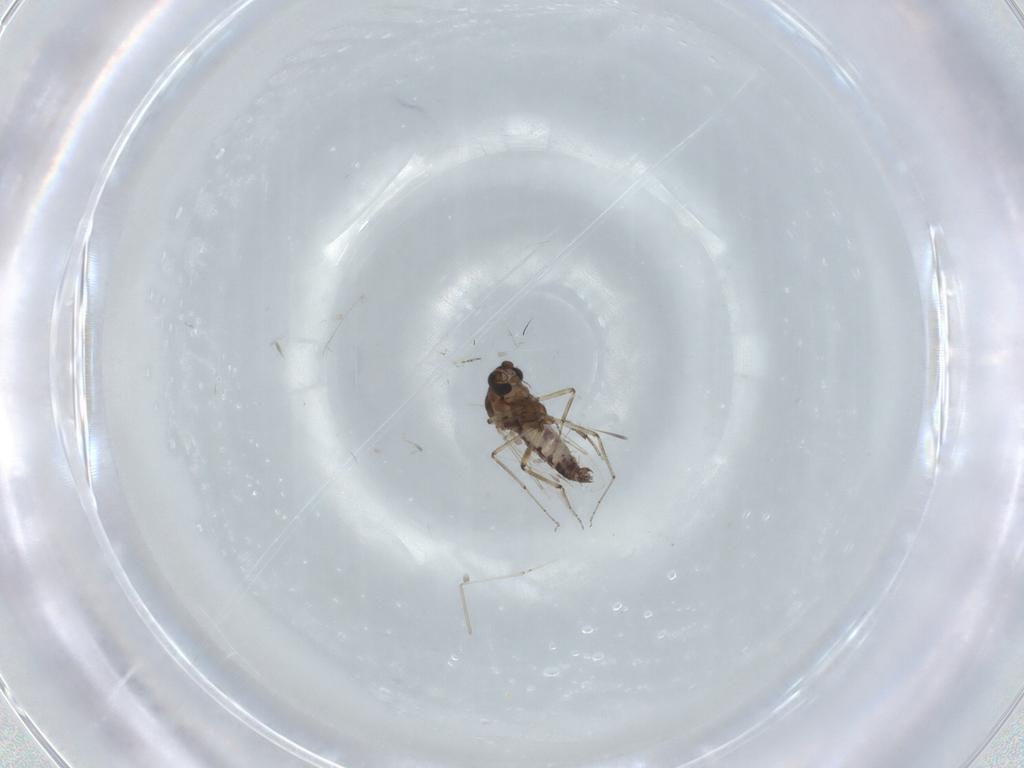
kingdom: Animalia
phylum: Arthropoda
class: Insecta
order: Diptera
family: Ceratopogonidae
